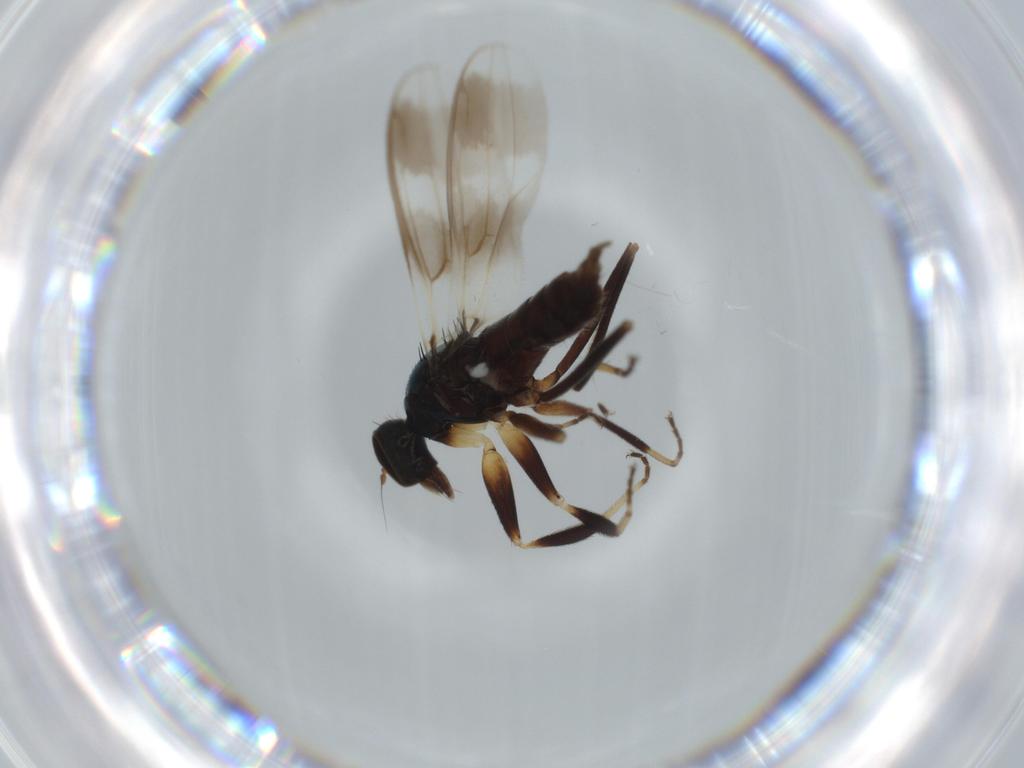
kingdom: Animalia
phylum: Arthropoda
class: Insecta
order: Diptera
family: Hybotidae
